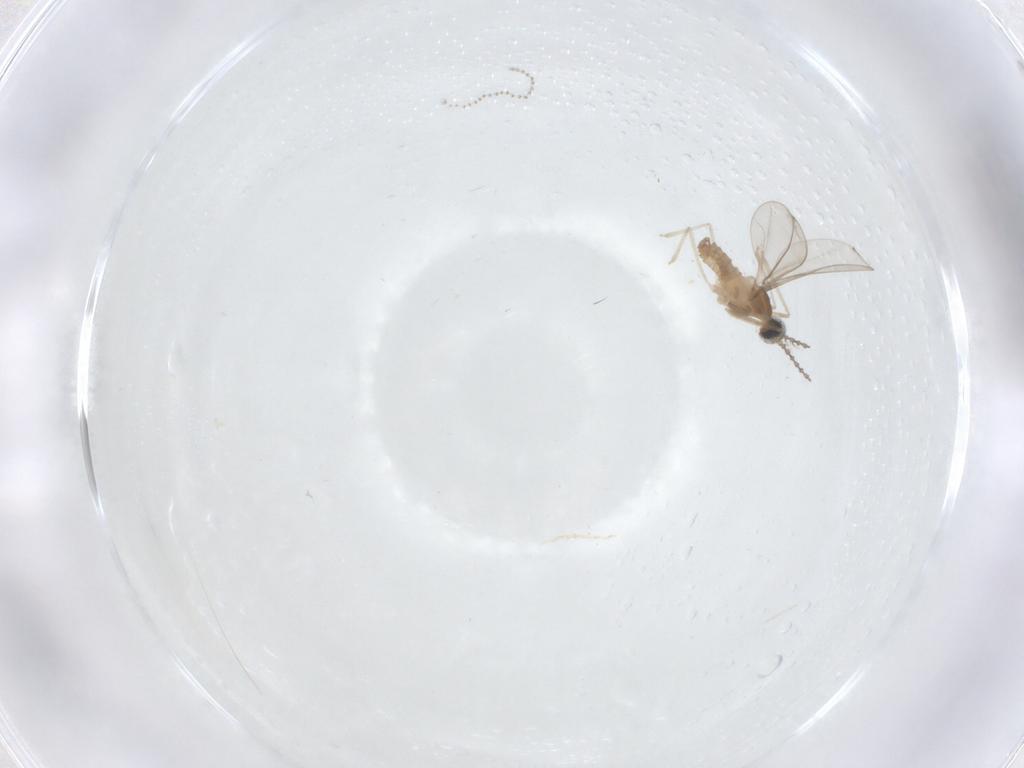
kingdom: Animalia
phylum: Arthropoda
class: Insecta
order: Diptera
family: Cecidomyiidae
